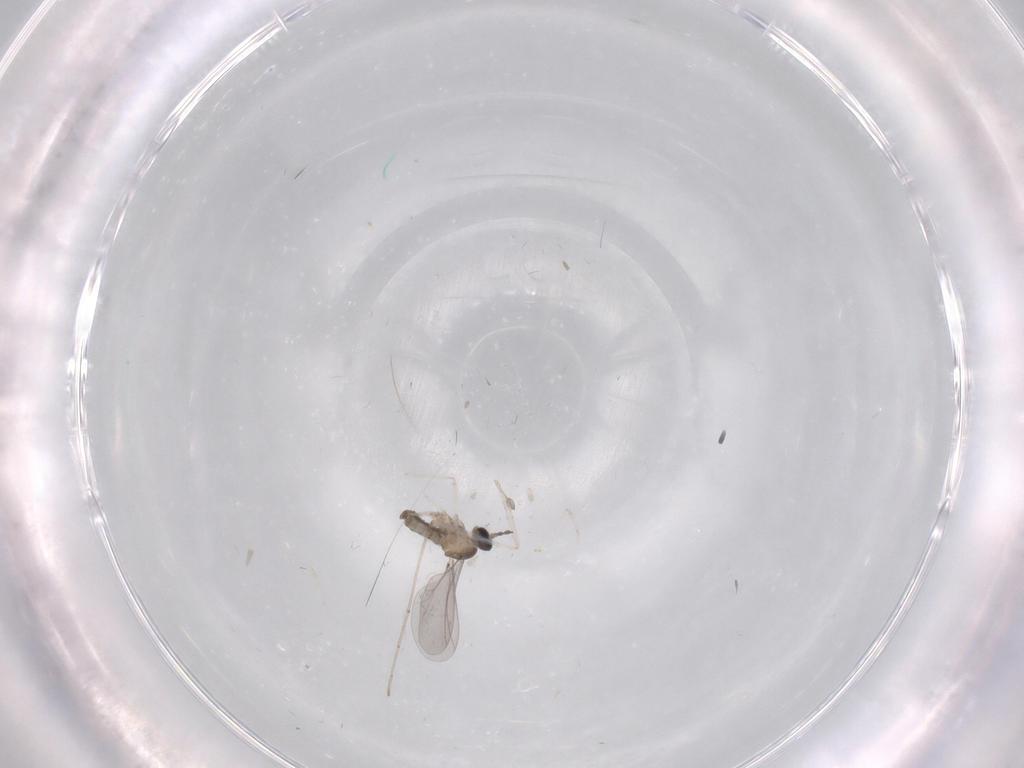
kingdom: Animalia
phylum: Arthropoda
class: Insecta
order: Diptera
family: Cecidomyiidae
